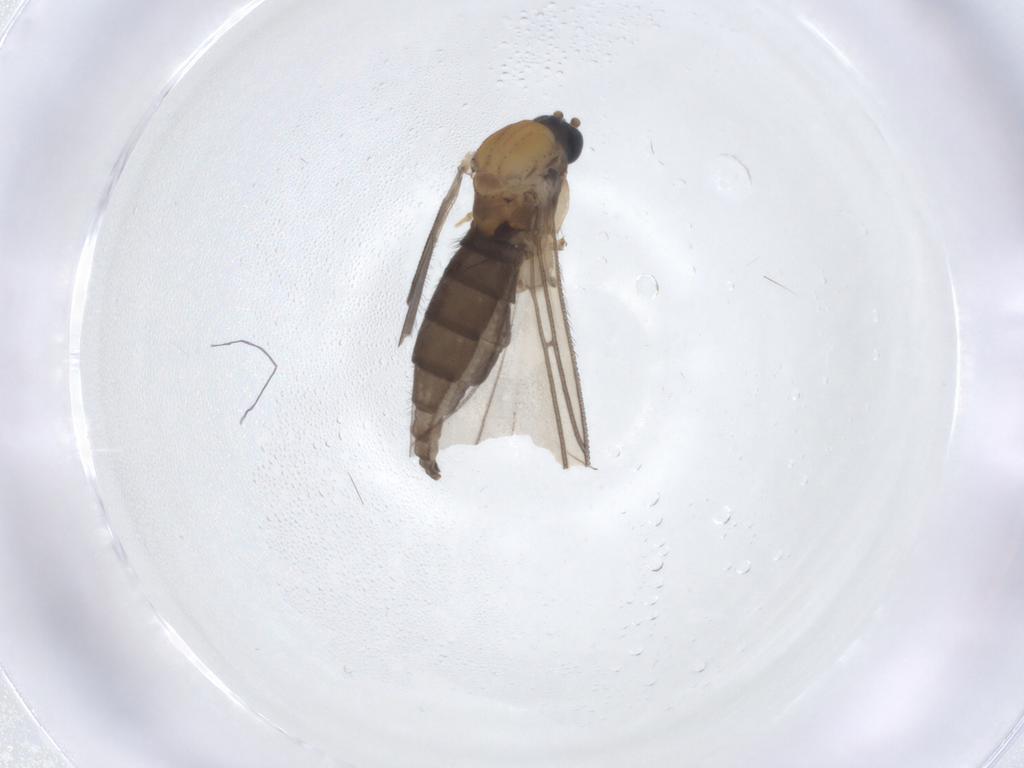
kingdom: Animalia
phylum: Arthropoda
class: Insecta
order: Diptera
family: Sciaridae
